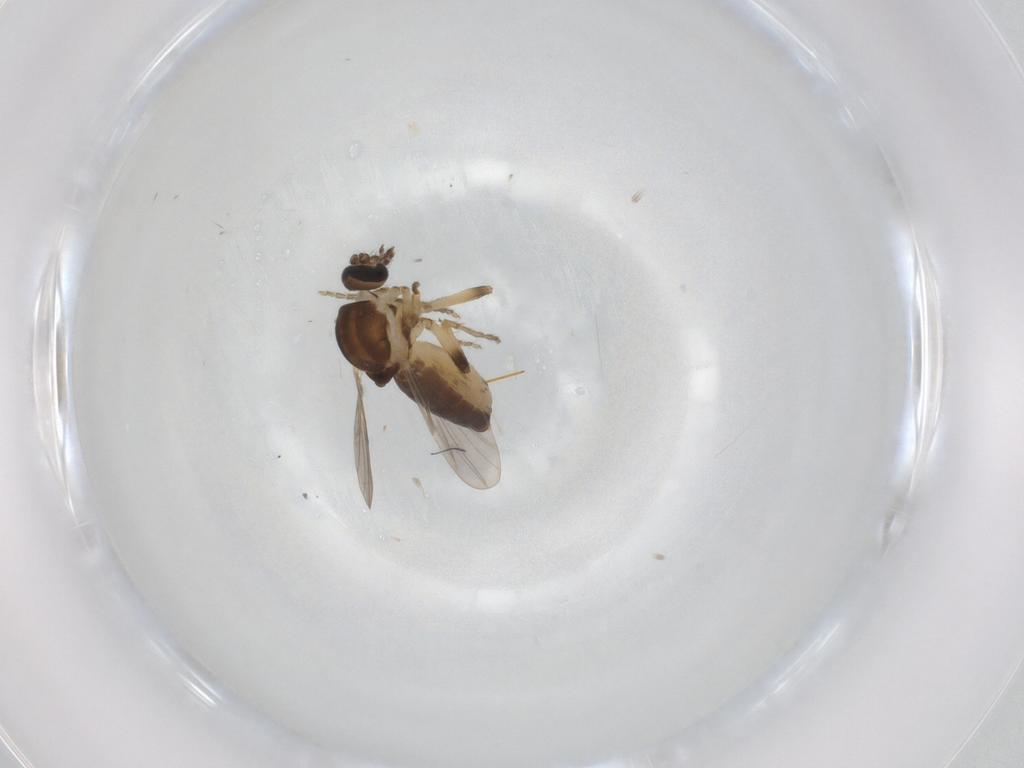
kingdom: Animalia
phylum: Arthropoda
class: Insecta
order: Diptera
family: Ceratopogonidae
